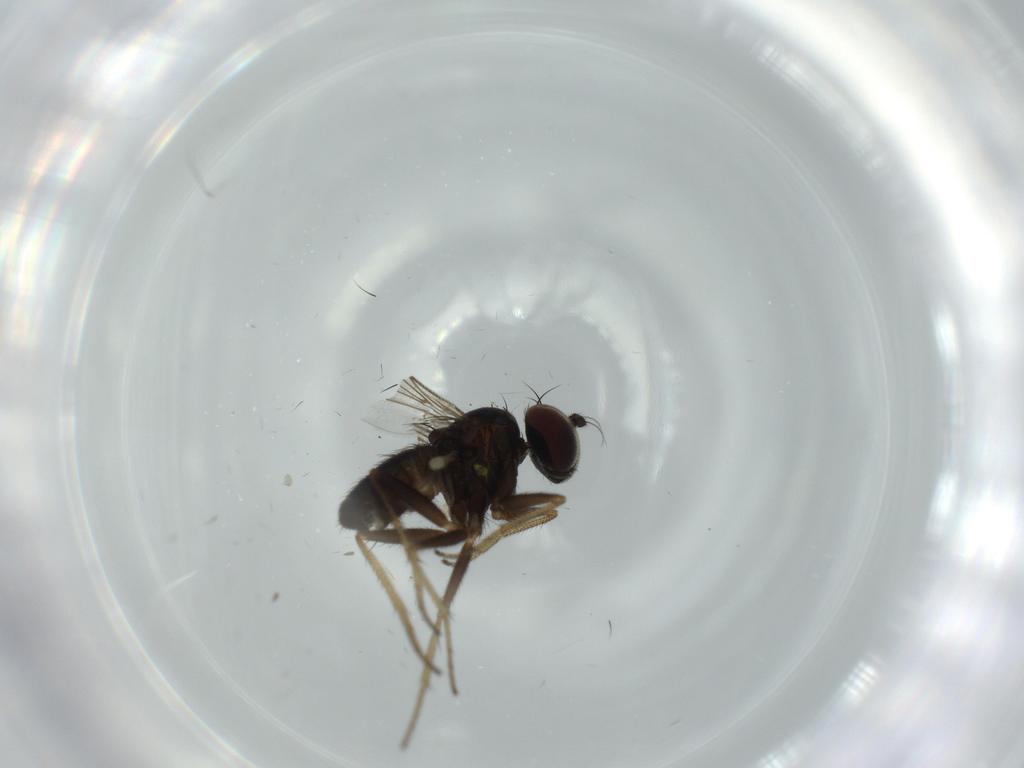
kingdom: Animalia
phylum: Arthropoda
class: Insecta
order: Diptera
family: Dolichopodidae
